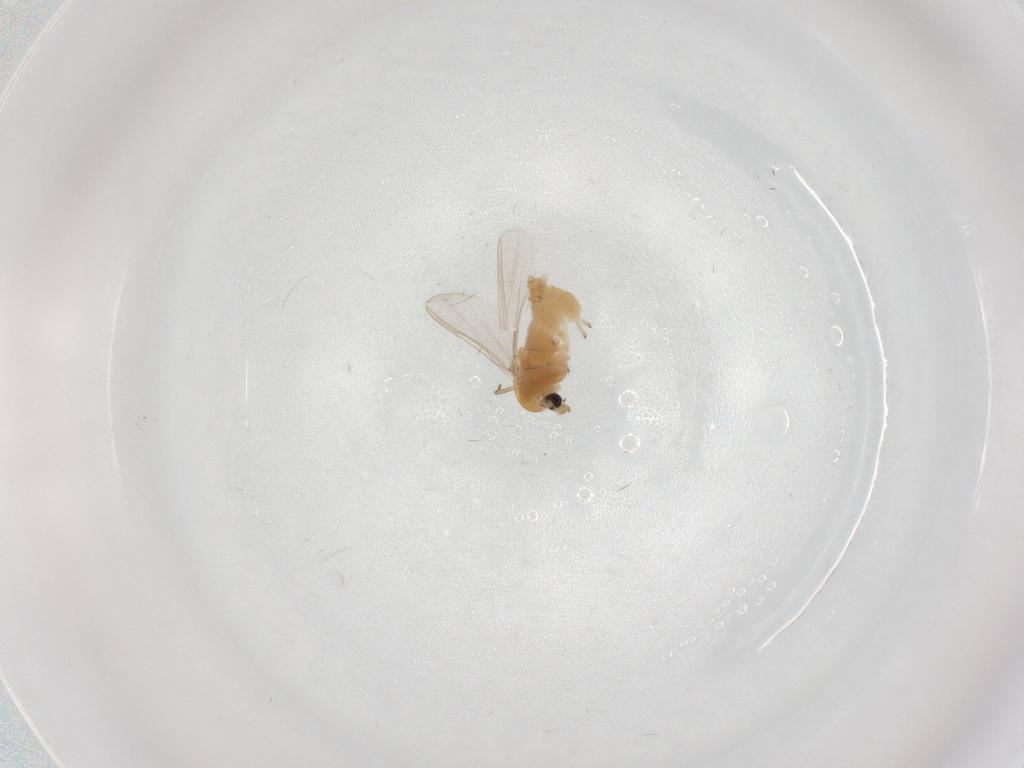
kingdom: Animalia
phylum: Arthropoda
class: Insecta
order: Diptera
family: Chironomidae
